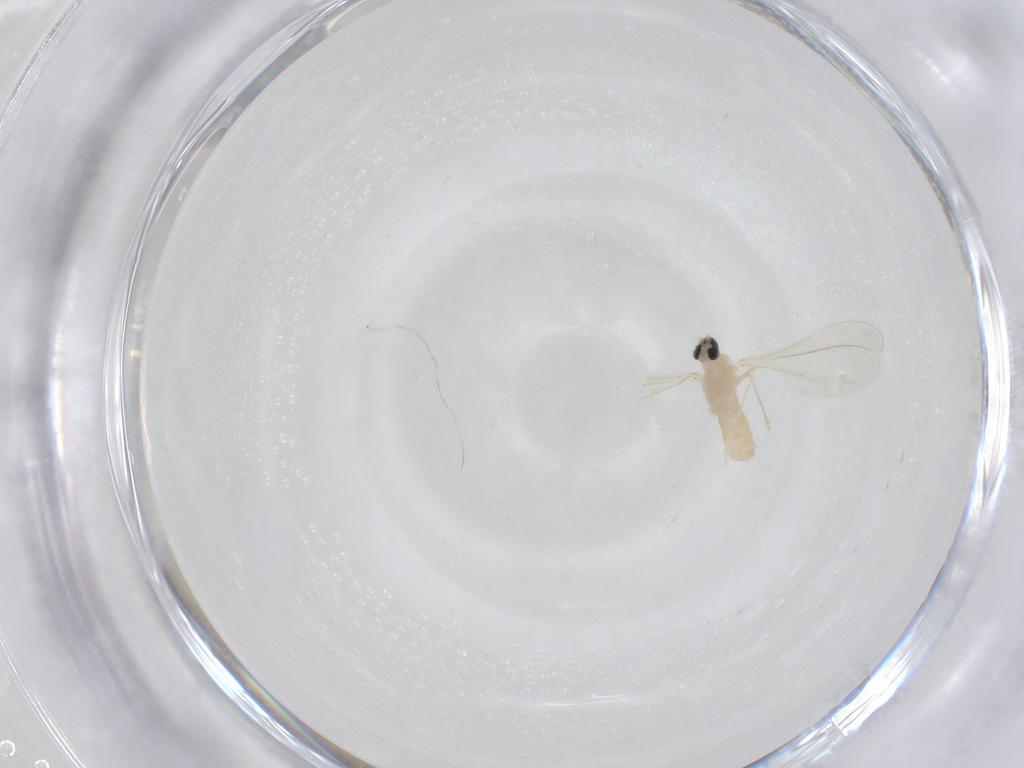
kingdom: Animalia
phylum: Arthropoda
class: Insecta
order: Diptera
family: Cecidomyiidae
